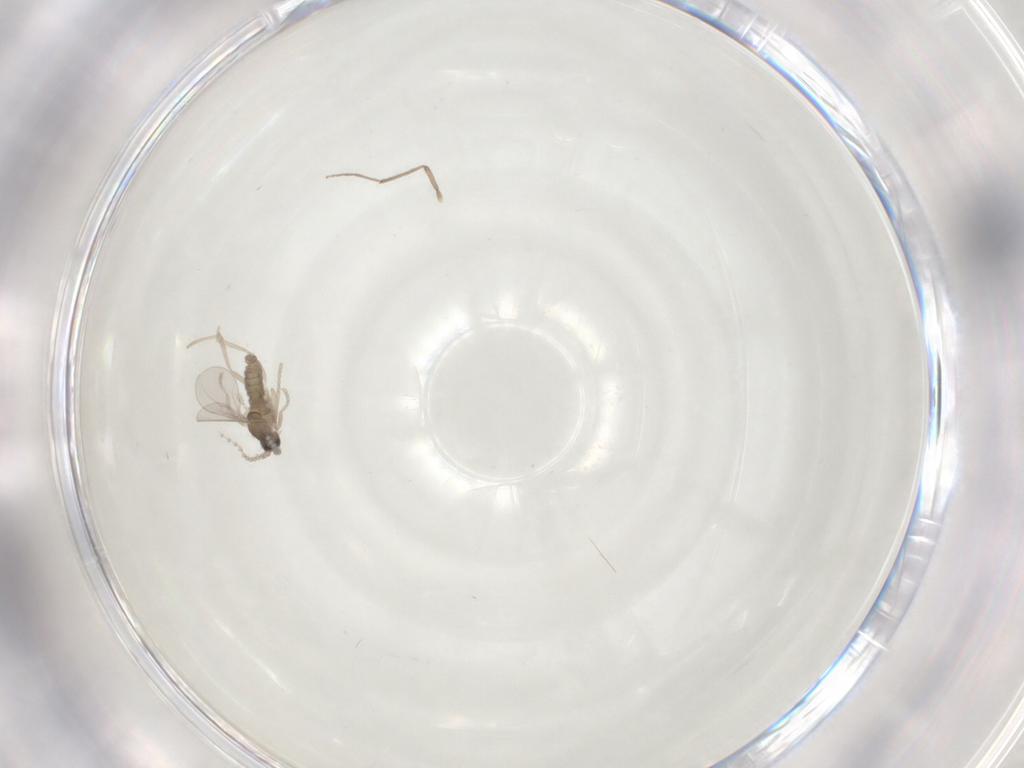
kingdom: Animalia
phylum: Arthropoda
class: Insecta
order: Diptera
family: Cecidomyiidae
